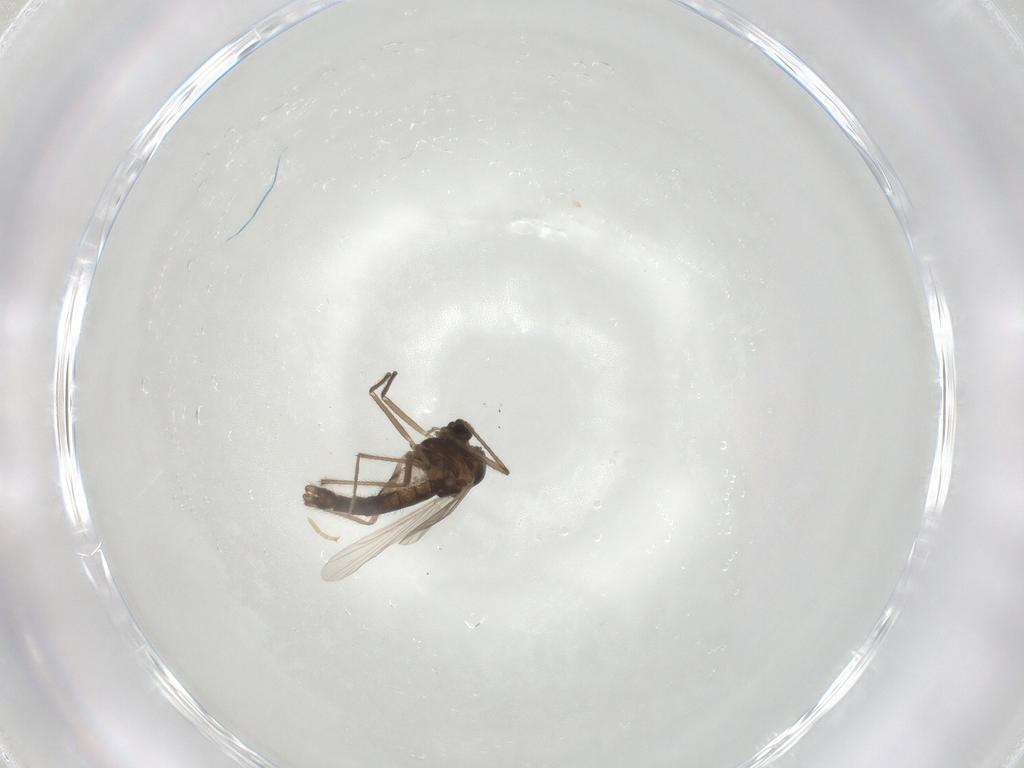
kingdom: Animalia
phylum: Arthropoda
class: Insecta
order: Diptera
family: Chironomidae
